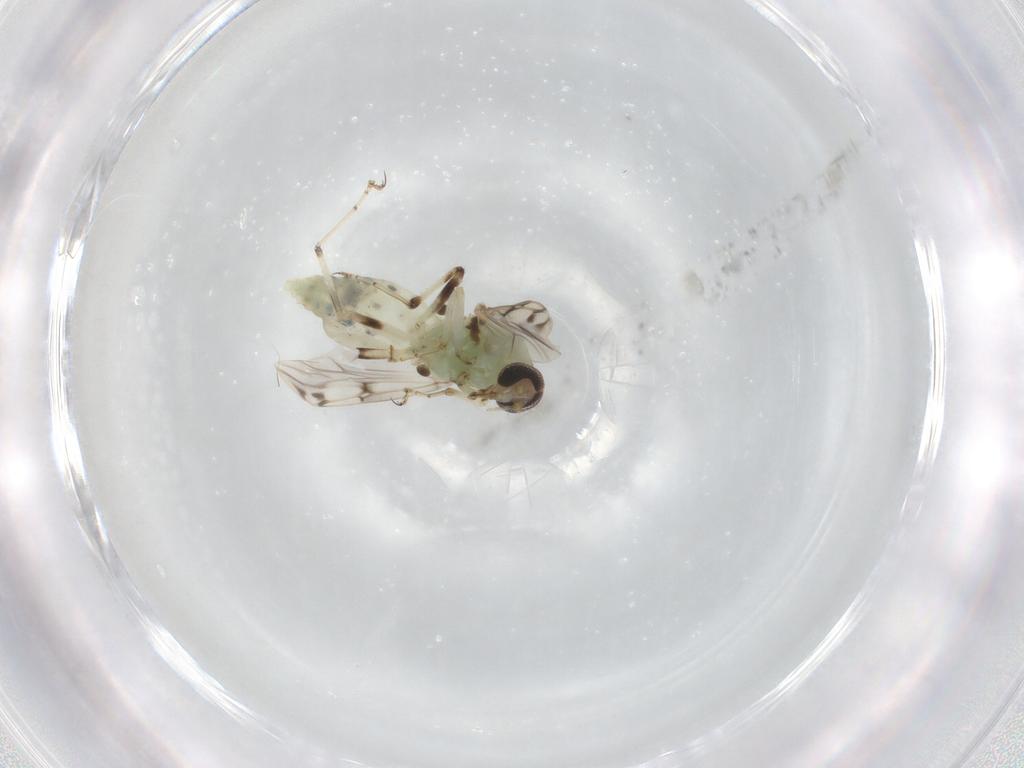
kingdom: Animalia
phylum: Arthropoda
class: Insecta
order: Diptera
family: Ceratopogonidae
